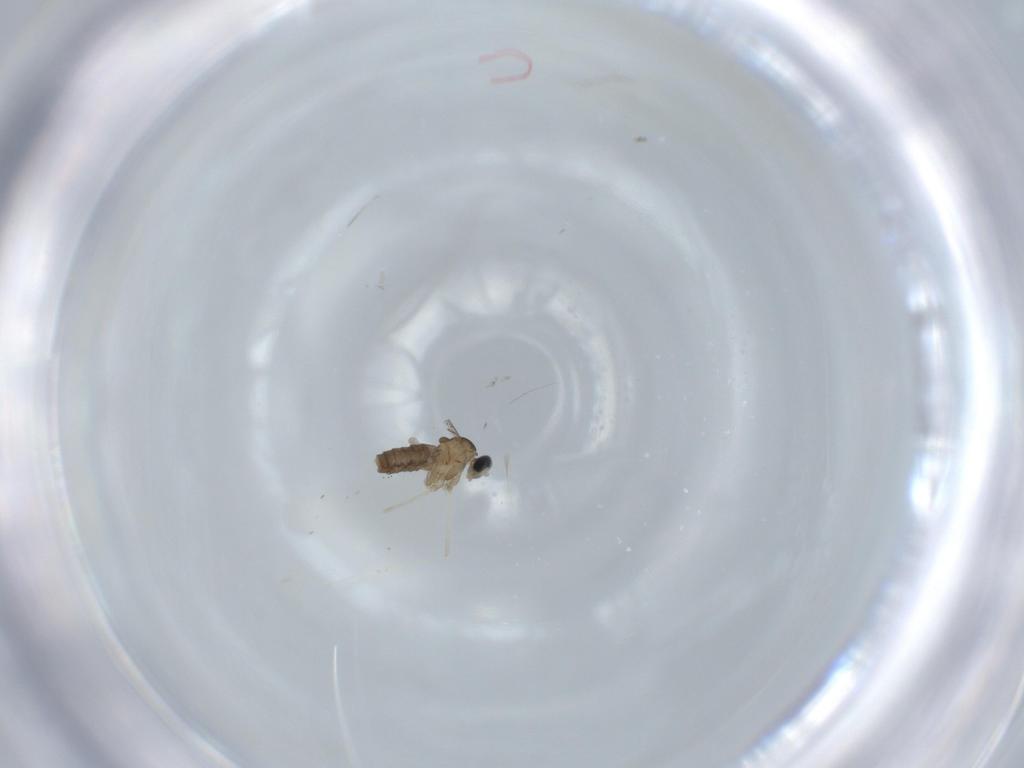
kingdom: Animalia
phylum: Arthropoda
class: Insecta
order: Diptera
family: Cecidomyiidae
